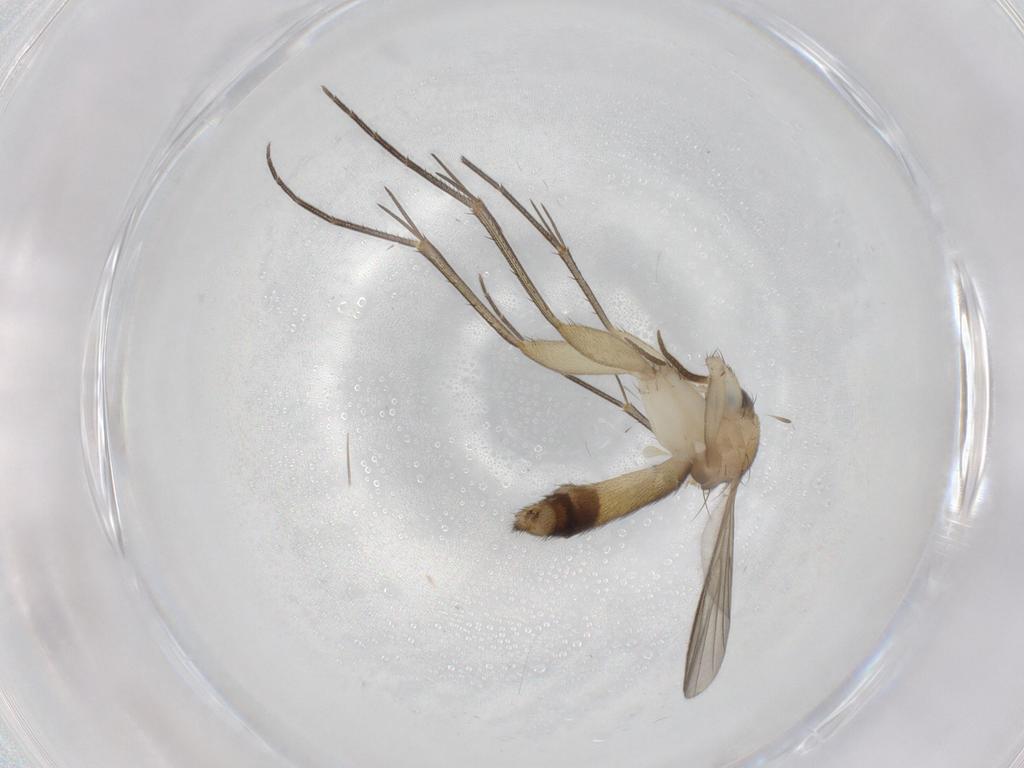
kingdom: Animalia
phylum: Arthropoda
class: Insecta
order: Diptera
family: Psychodidae
